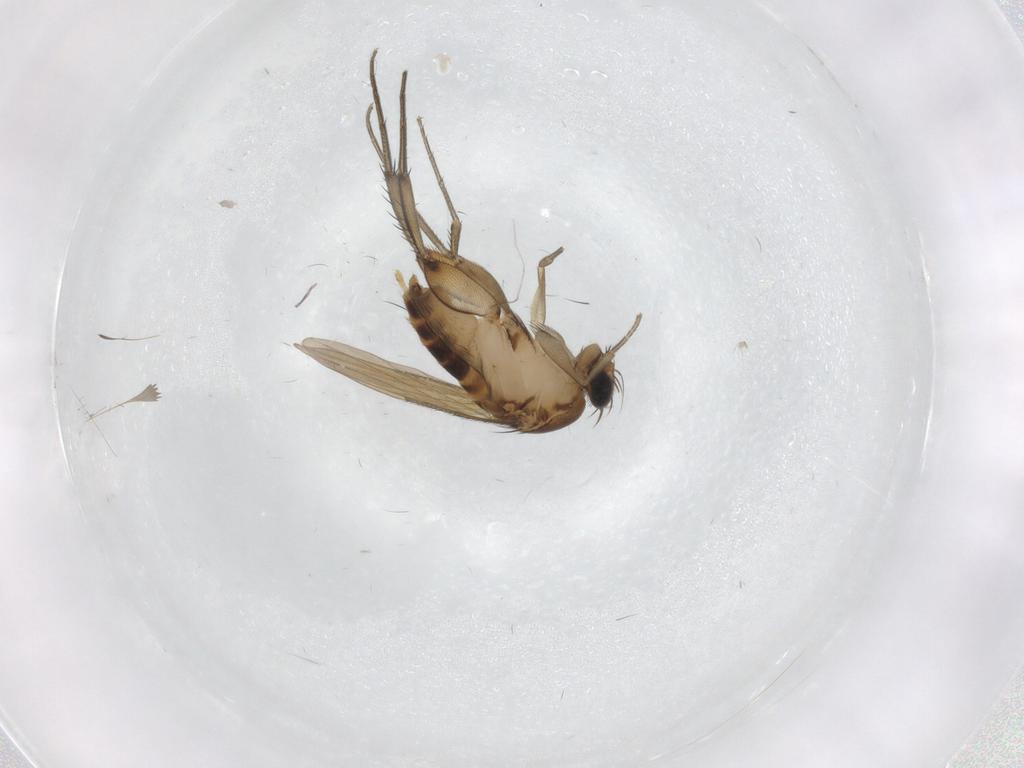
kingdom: Animalia
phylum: Arthropoda
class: Insecta
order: Diptera
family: Phoridae
